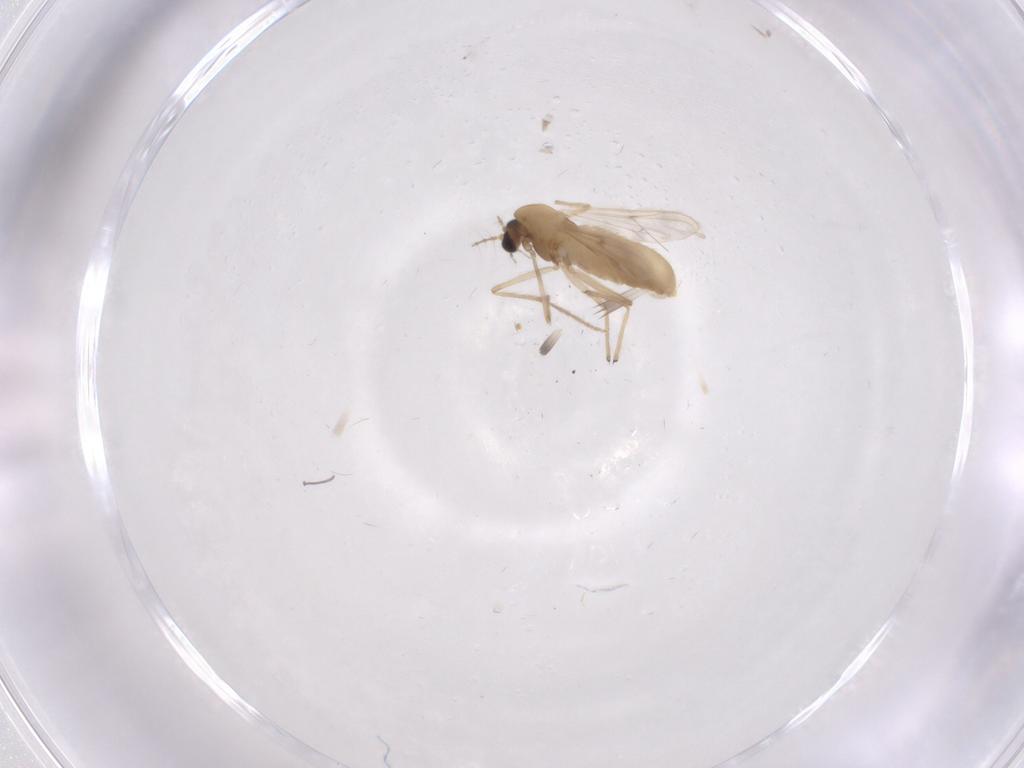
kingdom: Animalia
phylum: Arthropoda
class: Insecta
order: Diptera
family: Chironomidae
